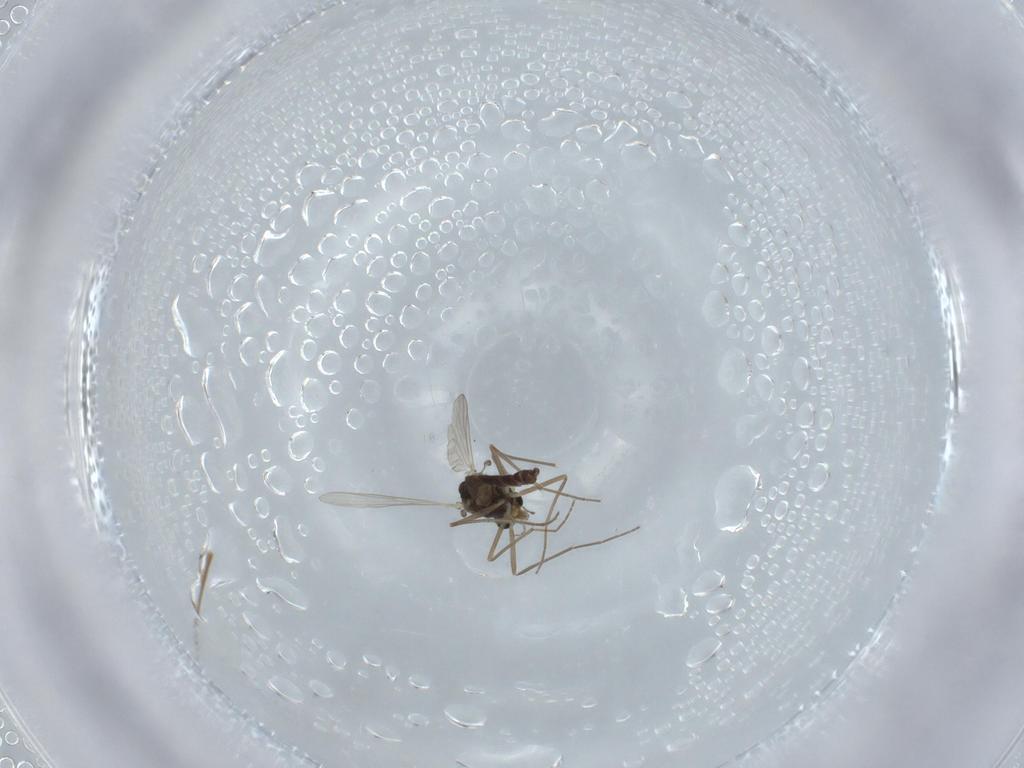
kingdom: Animalia
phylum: Arthropoda
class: Insecta
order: Diptera
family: Chironomidae
